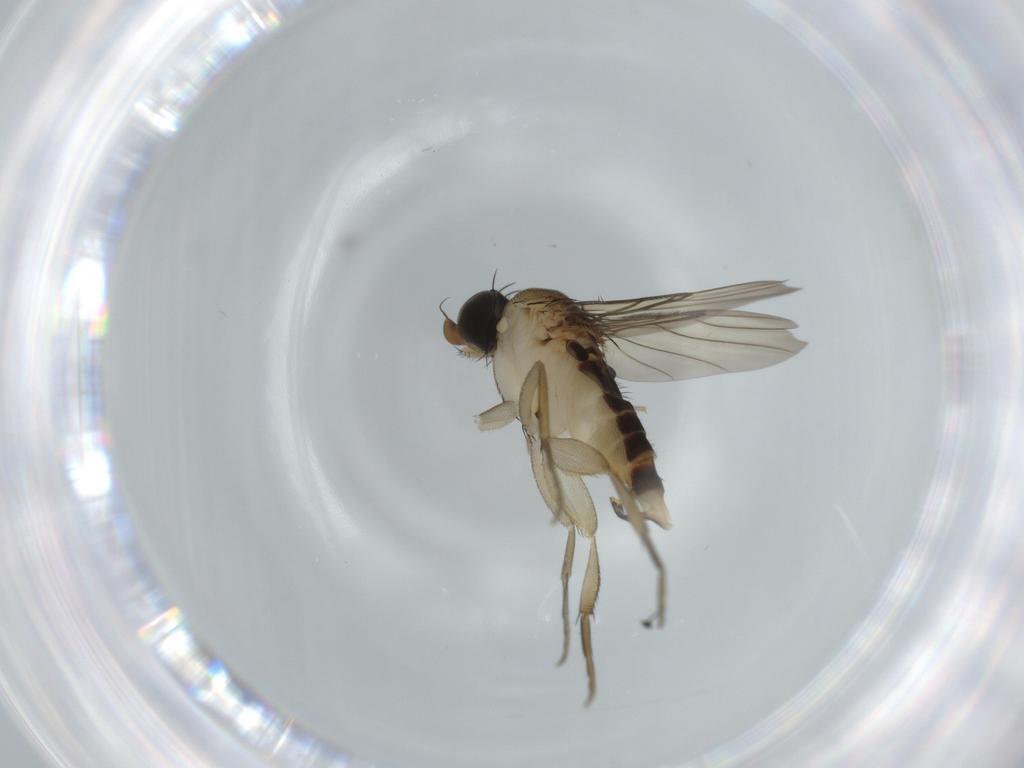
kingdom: Animalia
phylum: Arthropoda
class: Insecta
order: Diptera
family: Phoridae
